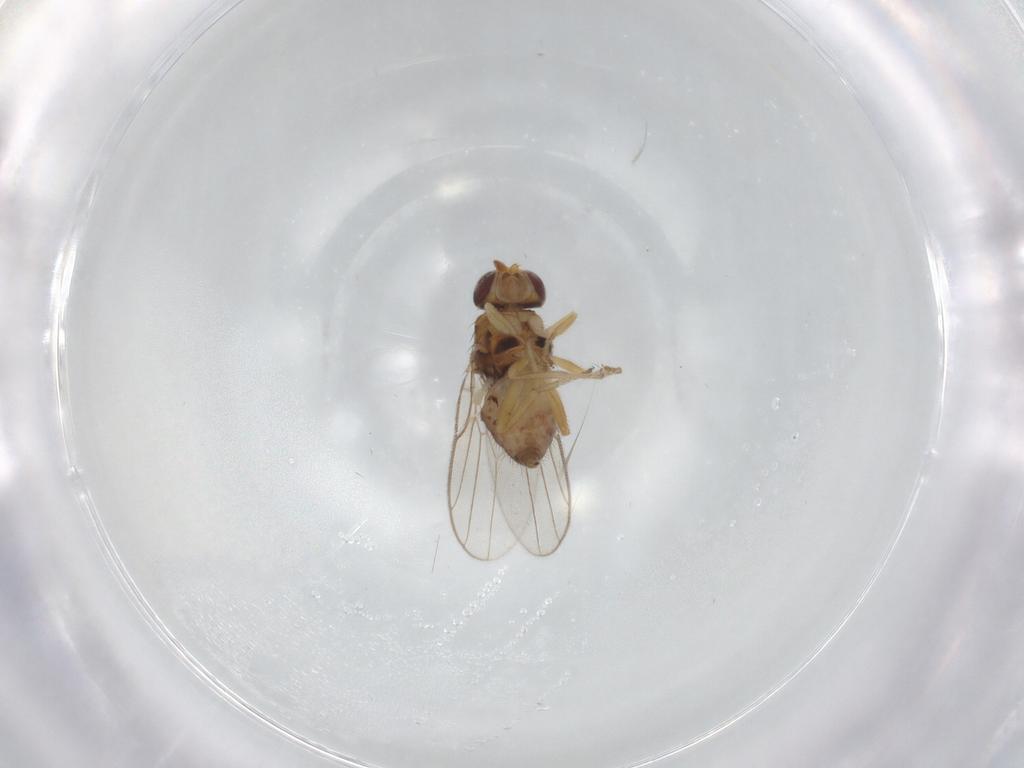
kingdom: Animalia
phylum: Arthropoda
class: Insecta
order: Diptera
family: Chloropidae
